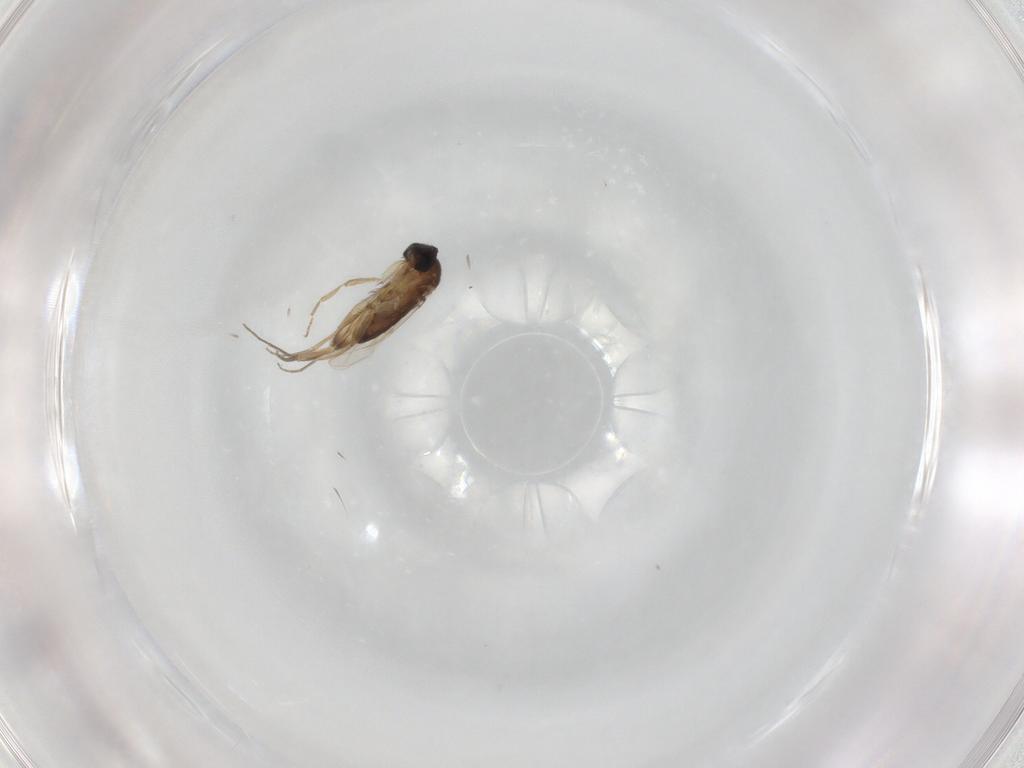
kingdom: Animalia
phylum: Arthropoda
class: Insecta
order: Diptera
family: Phoridae
